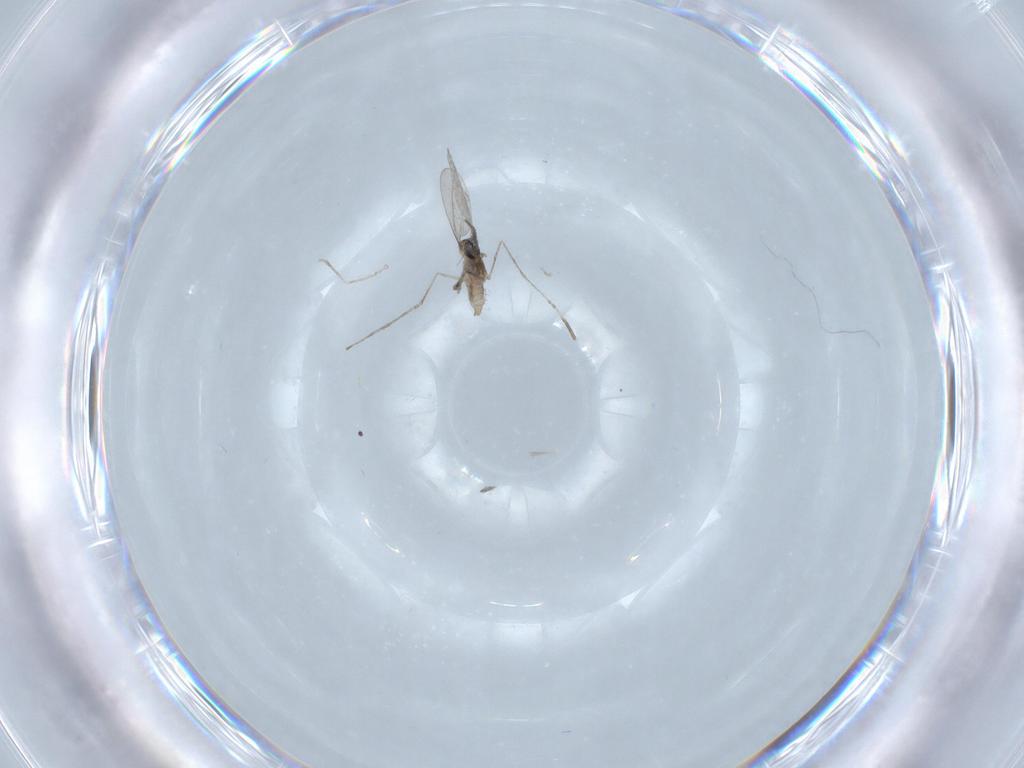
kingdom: Animalia
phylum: Arthropoda
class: Insecta
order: Diptera
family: Cecidomyiidae
